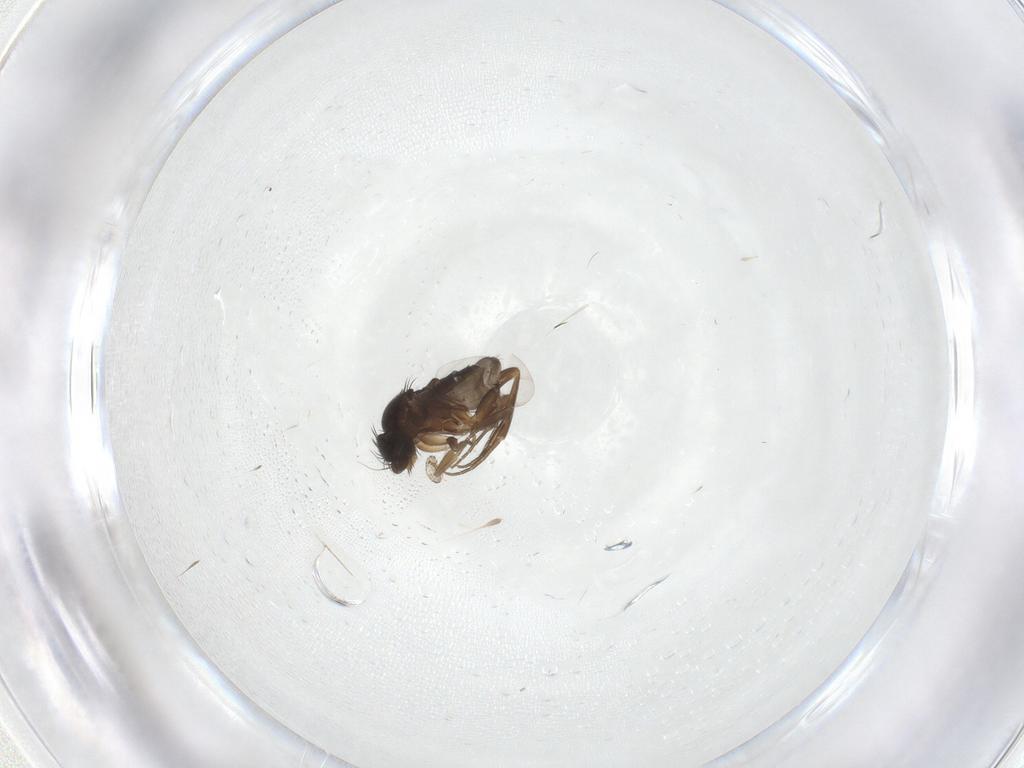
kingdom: Animalia
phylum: Arthropoda
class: Insecta
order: Diptera
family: Phoridae
